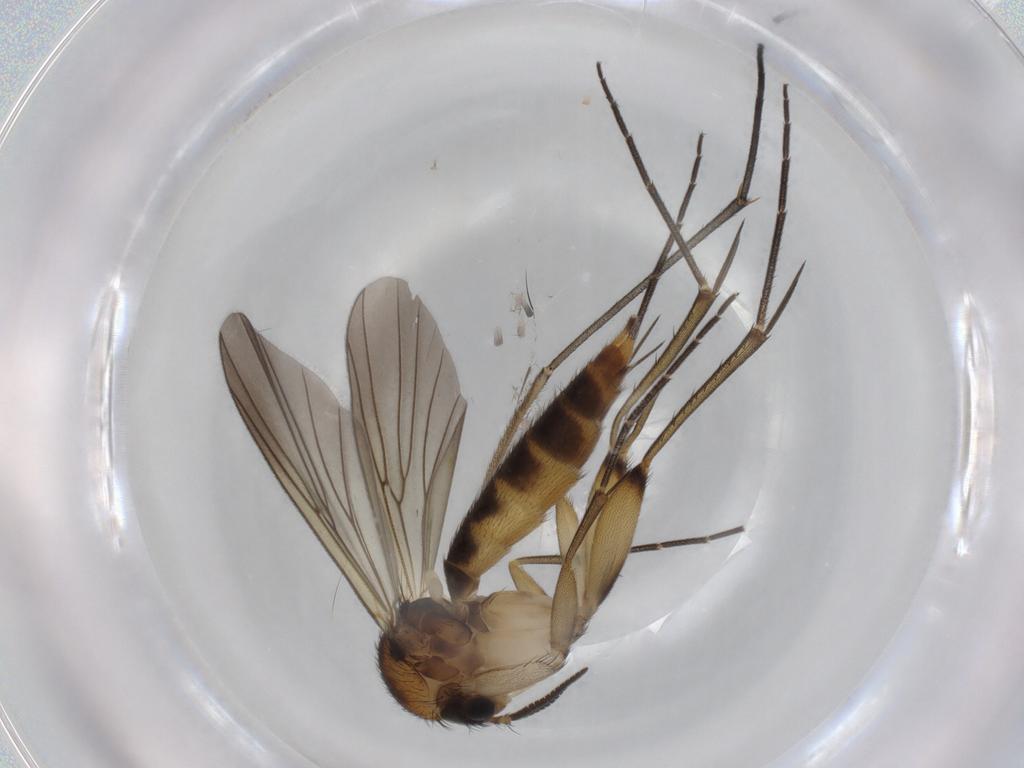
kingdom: Animalia
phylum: Arthropoda
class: Insecta
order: Diptera
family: Mycetophilidae
